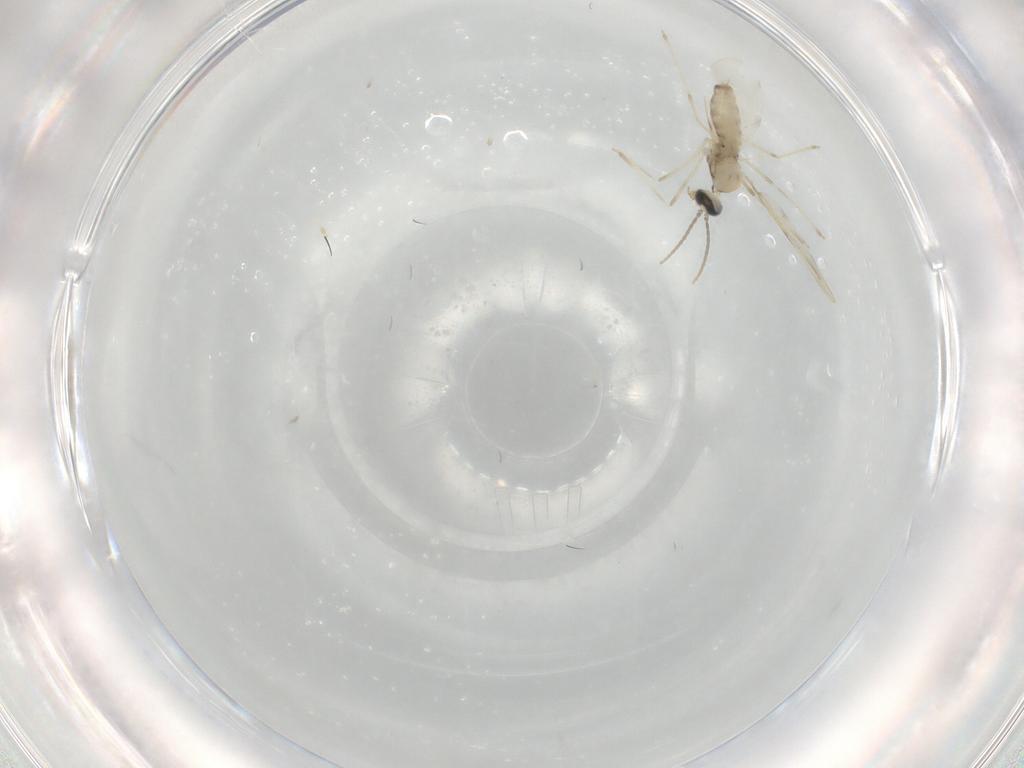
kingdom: Animalia
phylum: Arthropoda
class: Insecta
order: Diptera
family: Cecidomyiidae
